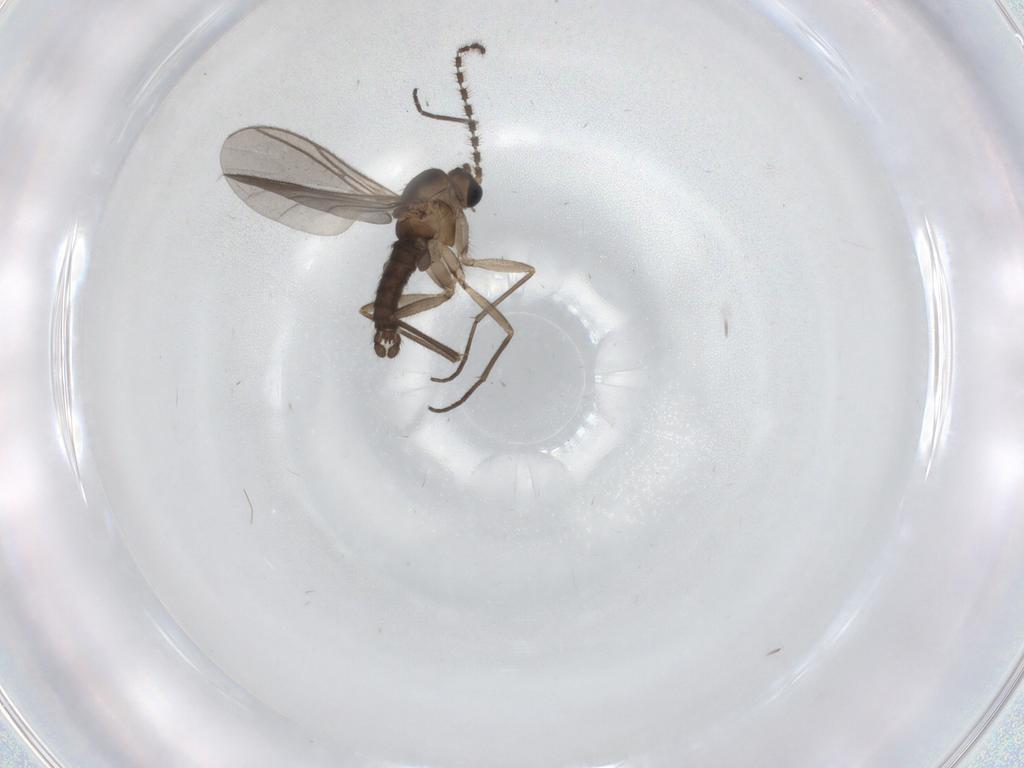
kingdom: Animalia
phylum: Arthropoda
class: Insecta
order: Diptera
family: Sciaridae
